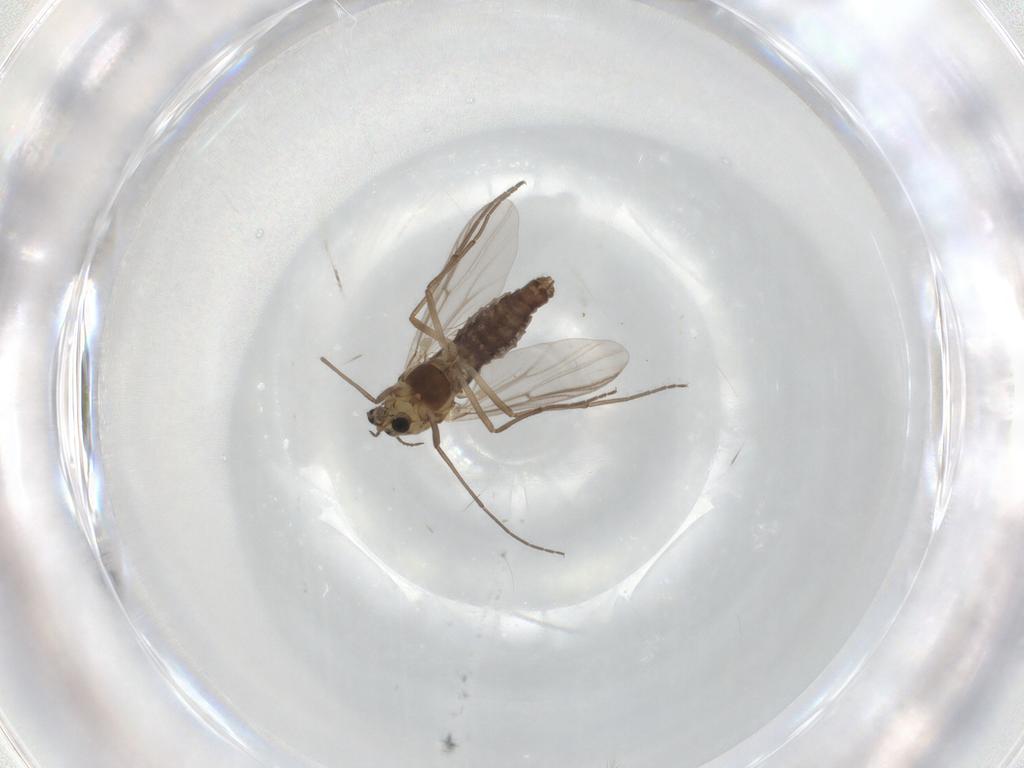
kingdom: Animalia
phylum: Arthropoda
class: Insecta
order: Diptera
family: Chironomidae
